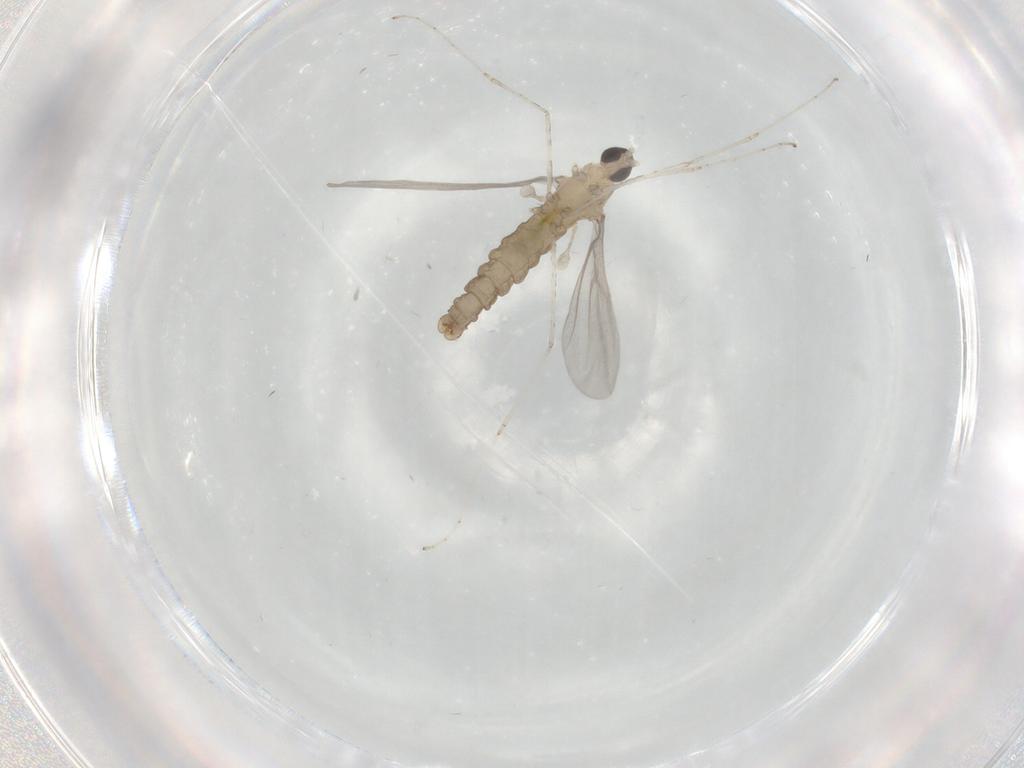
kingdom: Animalia
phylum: Arthropoda
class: Insecta
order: Diptera
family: Cecidomyiidae
